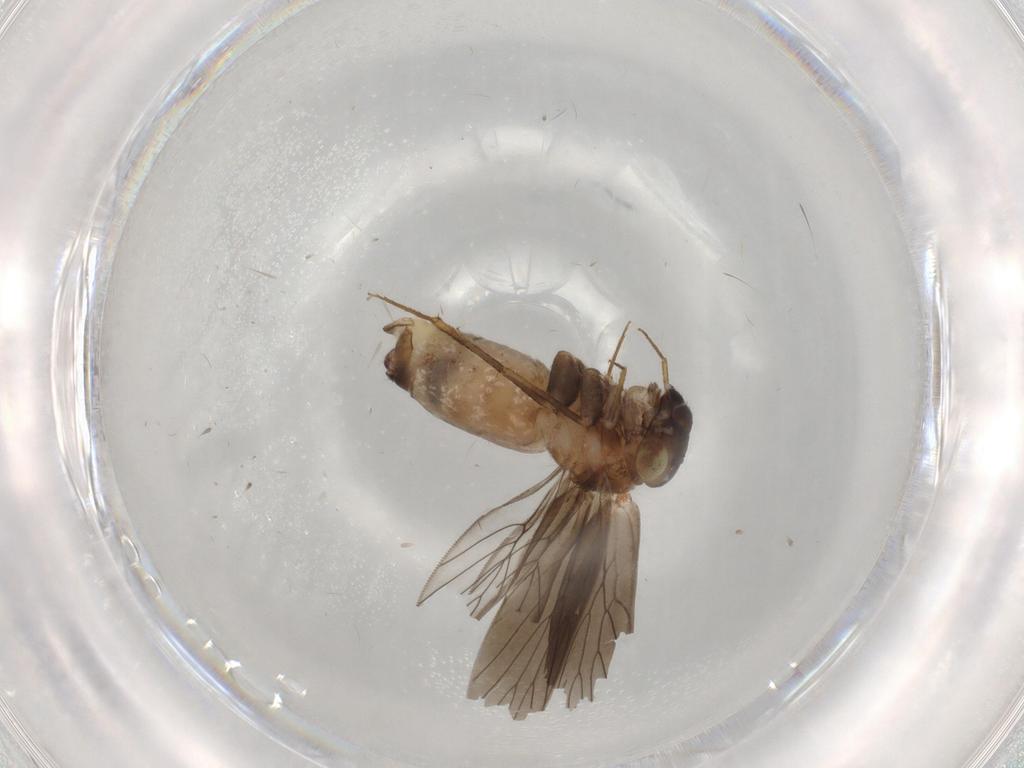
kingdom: Animalia
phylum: Arthropoda
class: Insecta
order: Psocodea
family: Lepidopsocidae
